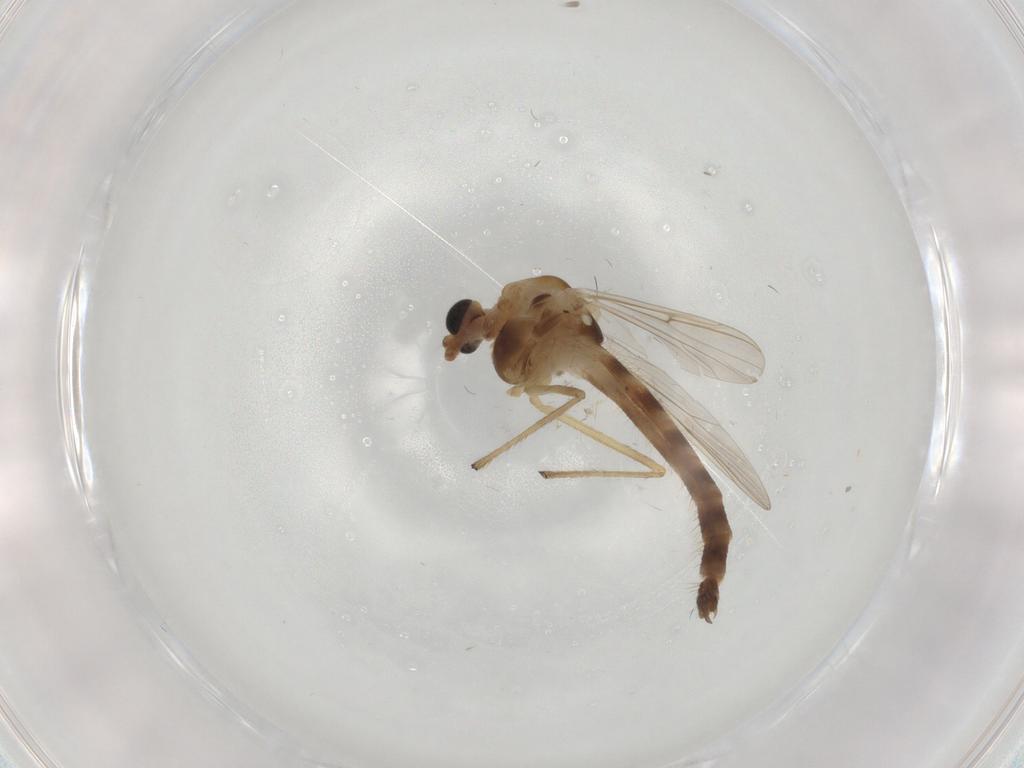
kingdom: Animalia
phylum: Arthropoda
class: Insecta
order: Diptera
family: Chironomidae
